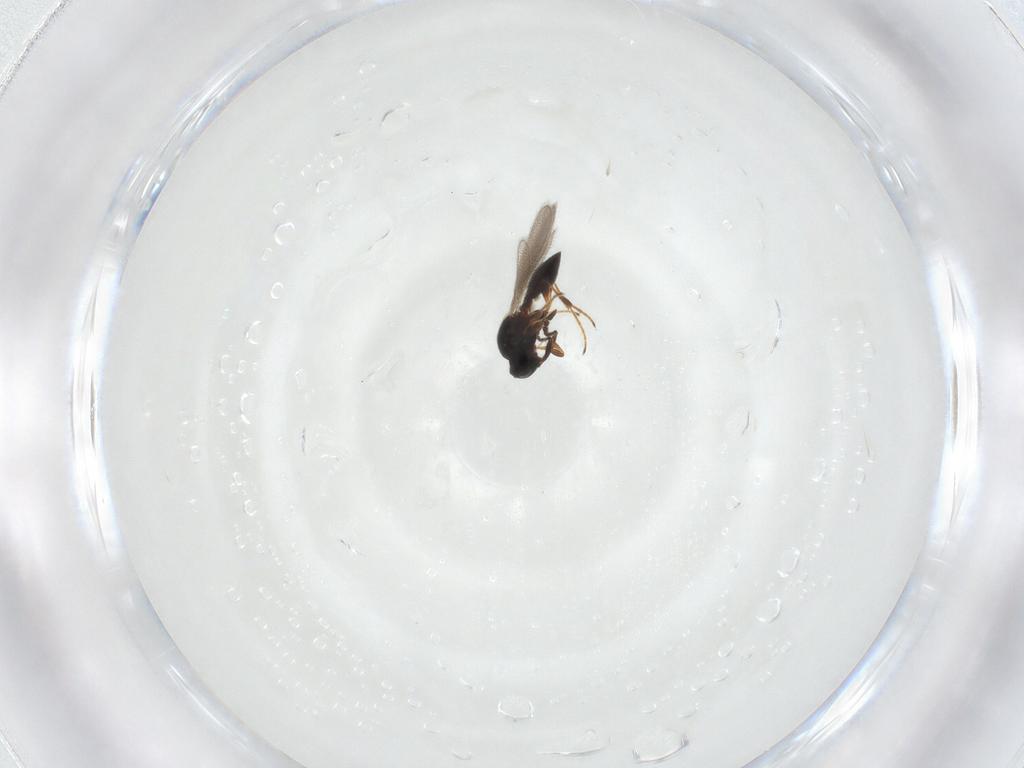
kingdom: Animalia
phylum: Arthropoda
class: Insecta
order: Hymenoptera
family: Platygastridae
